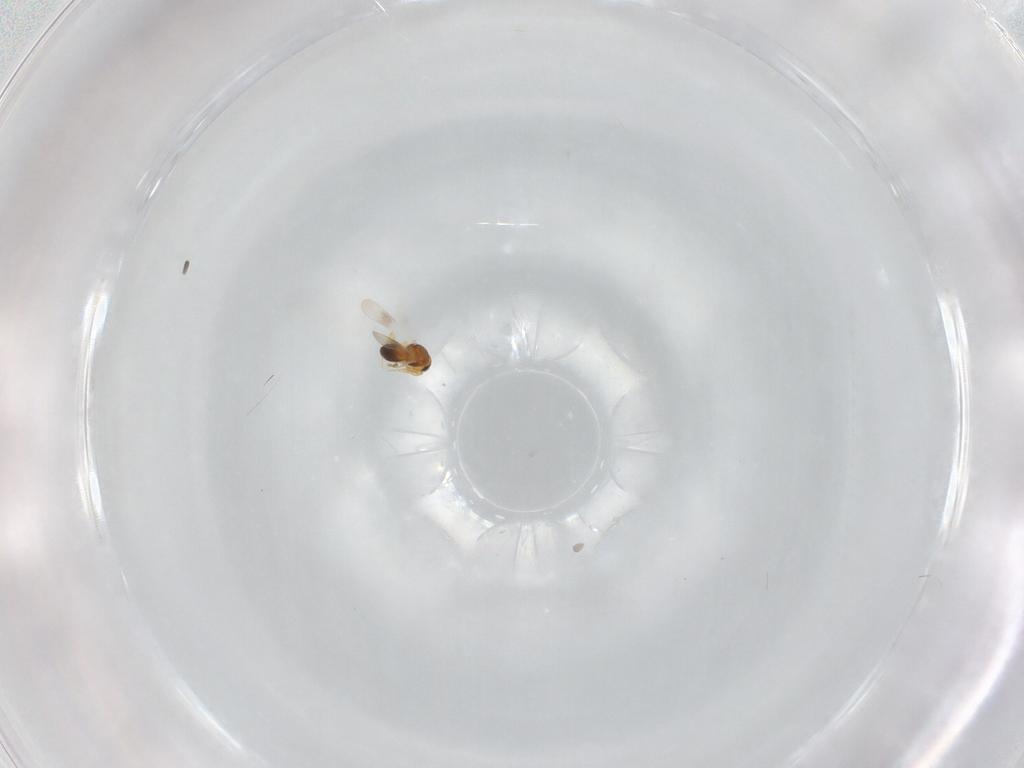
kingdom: Animalia
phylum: Arthropoda
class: Insecta
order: Hymenoptera
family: Platygastridae
